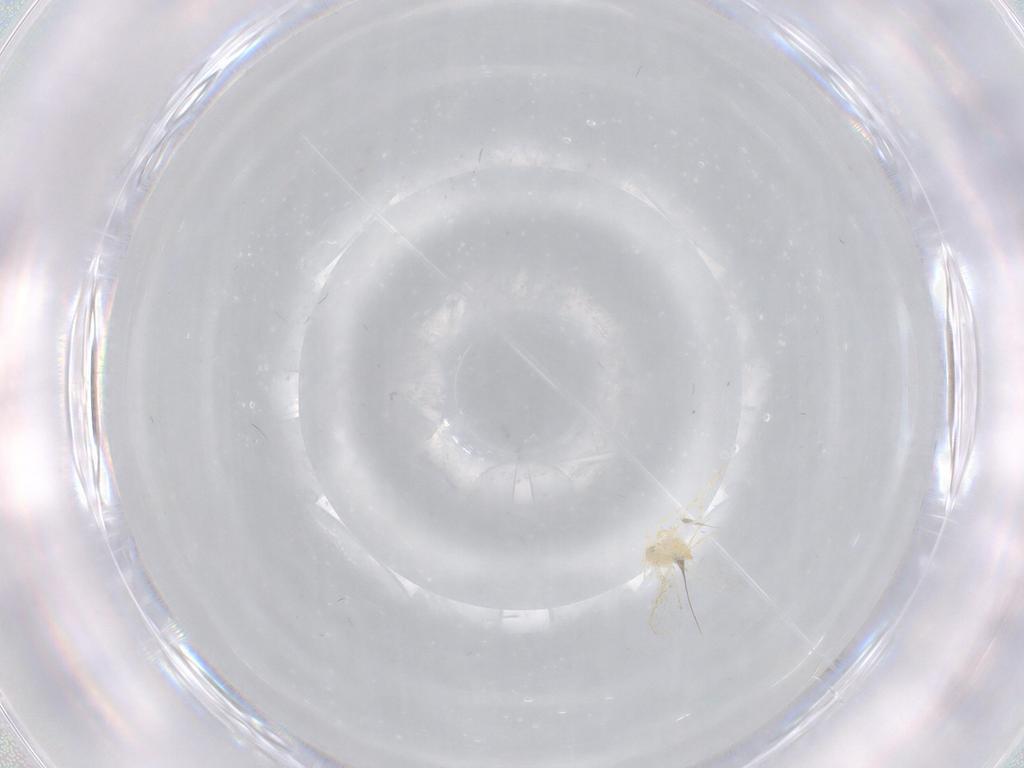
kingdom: Animalia
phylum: Arthropoda
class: Insecta
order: Hemiptera
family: Aleyrodidae
